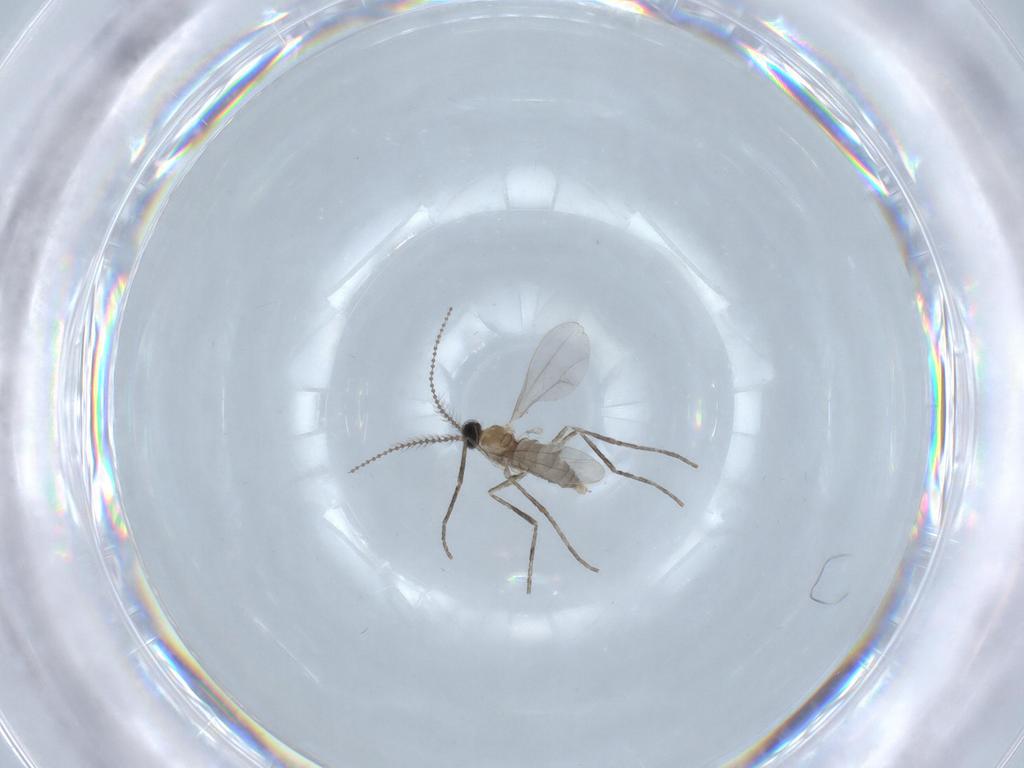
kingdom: Animalia
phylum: Arthropoda
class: Insecta
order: Diptera
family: Cecidomyiidae
